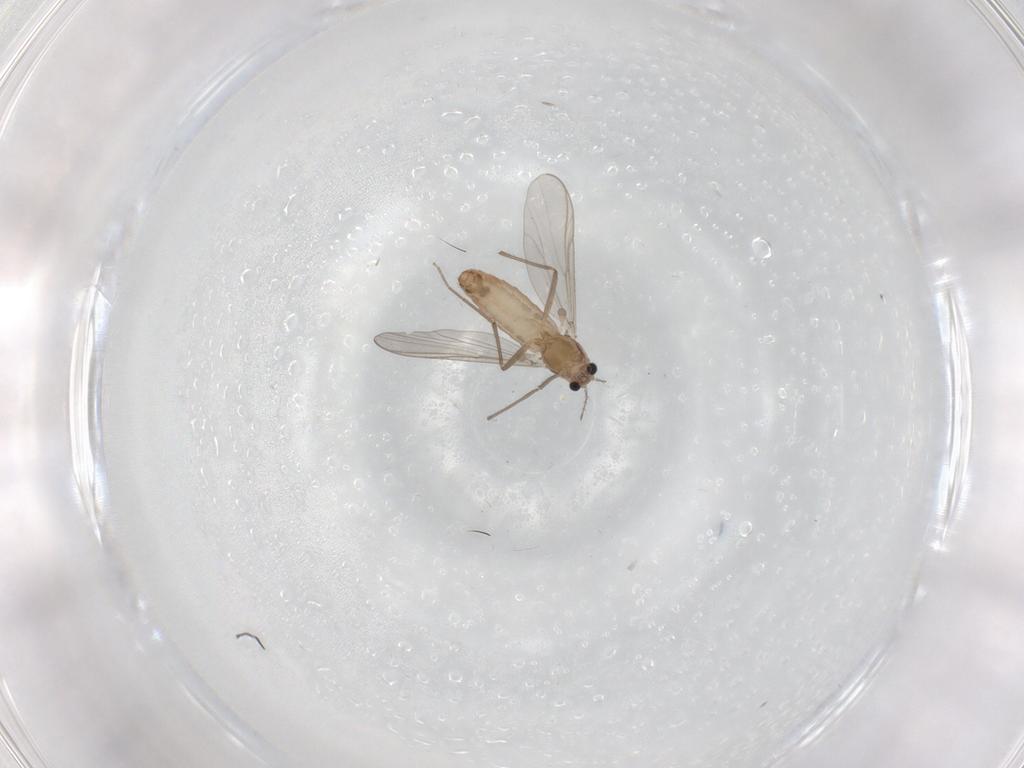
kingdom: Animalia
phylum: Arthropoda
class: Insecta
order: Diptera
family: Chironomidae
